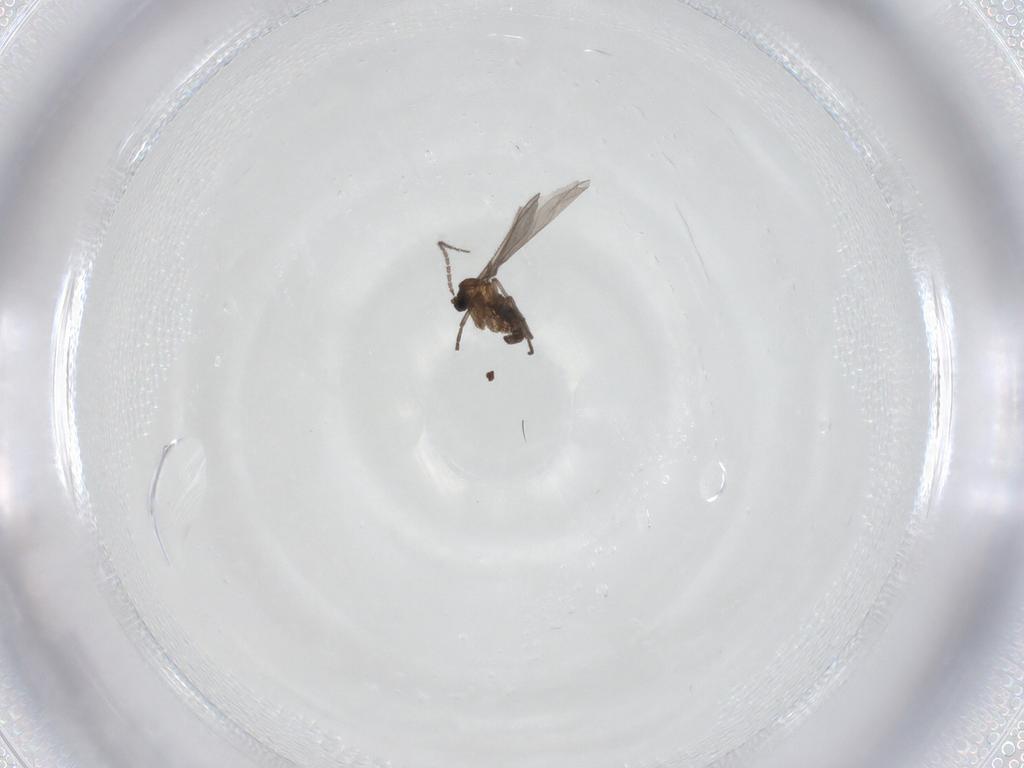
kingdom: Animalia
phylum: Arthropoda
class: Insecta
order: Diptera
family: Sciaridae
